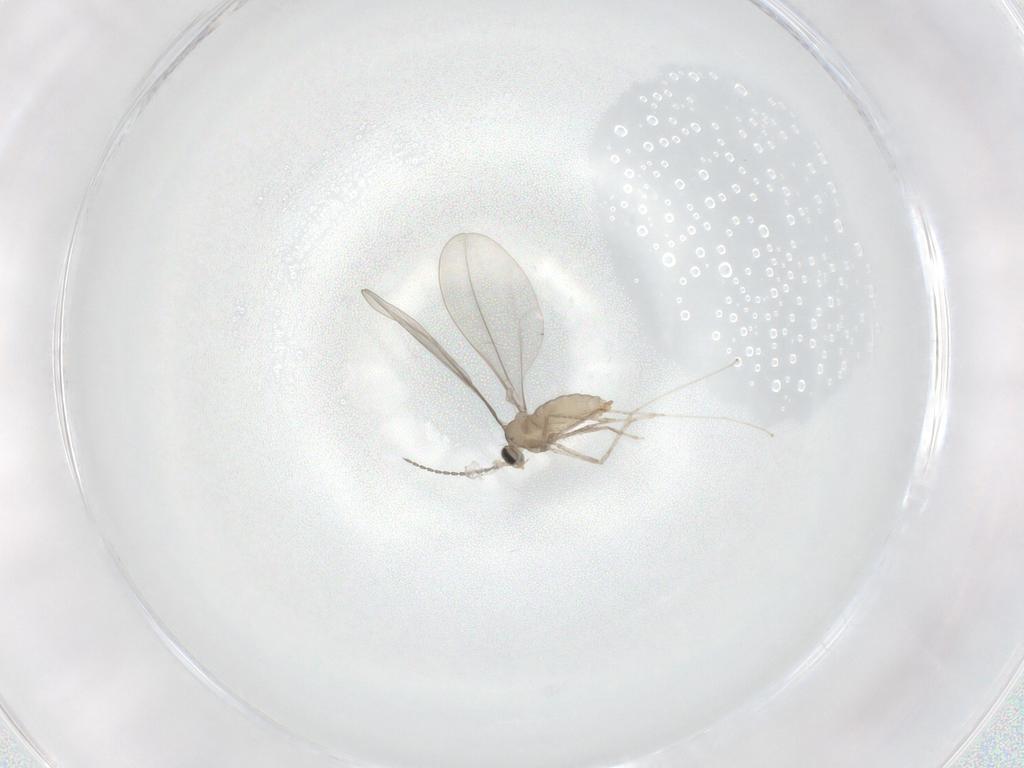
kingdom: Animalia
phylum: Arthropoda
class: Insecta
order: Diptera
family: Cecidomyiidae
